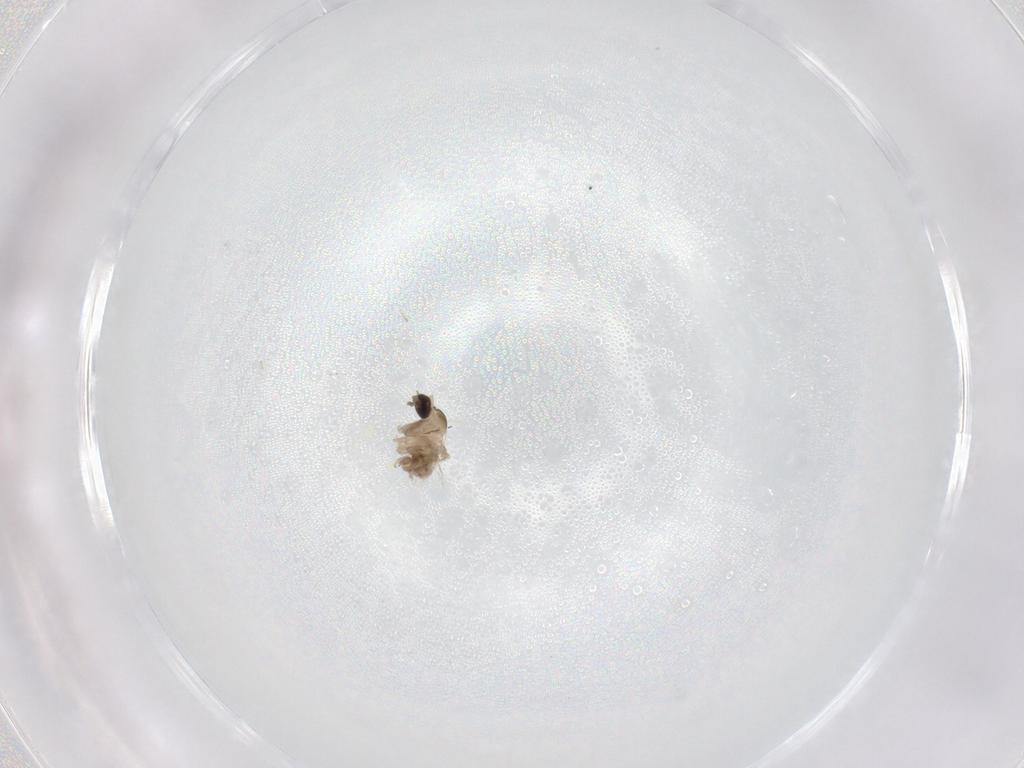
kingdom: Animalia
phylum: Arthropoda
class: Insecta
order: Diptera
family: Cecidomyiidae
